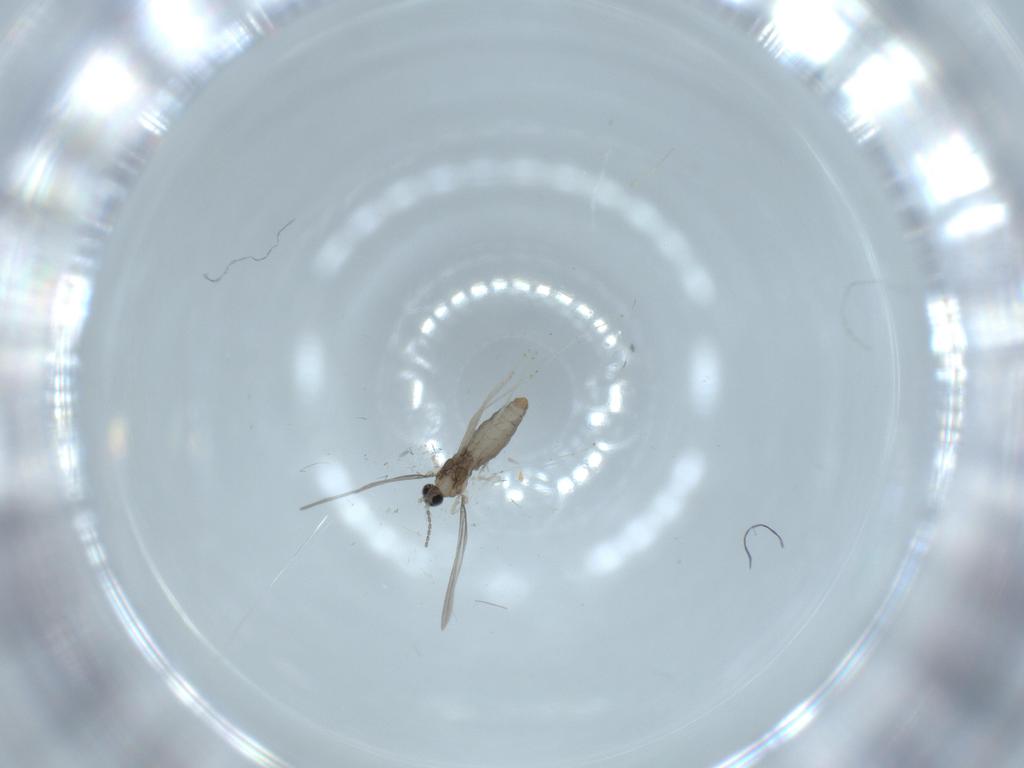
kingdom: Animalia
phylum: Arthropoda
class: Insecta
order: Diptera
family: Cecidomyiidae
